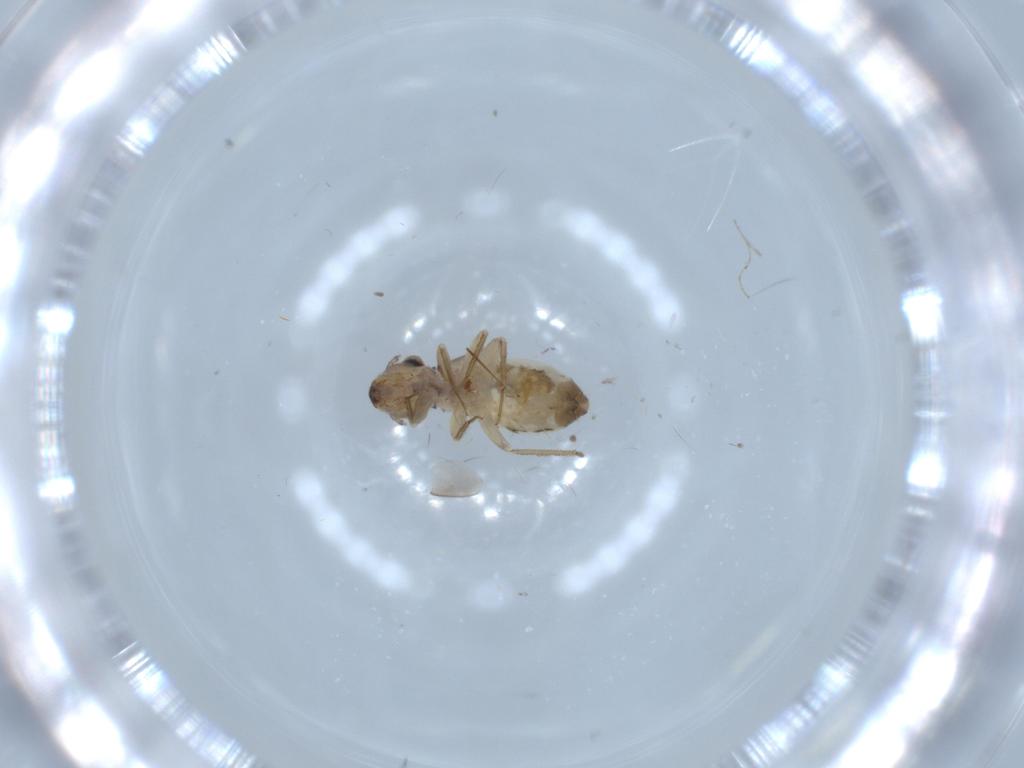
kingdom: Animalia
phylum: Arthropoda
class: Insecta
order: Psocodea
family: Lepidopsocidae
